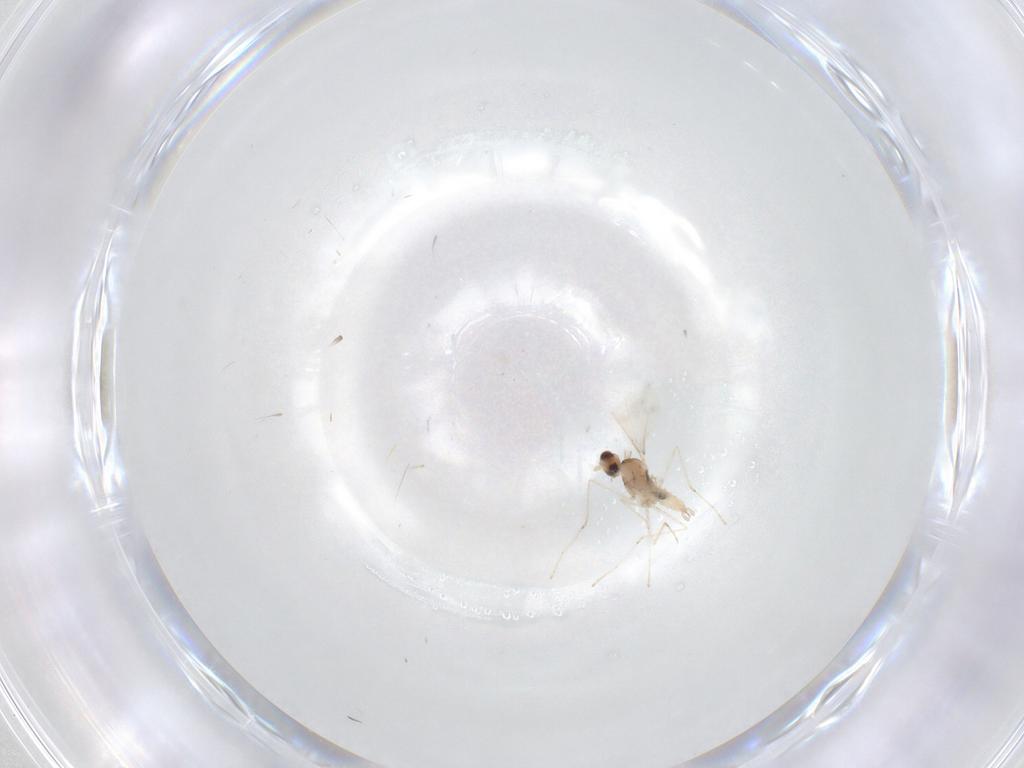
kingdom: Animalia
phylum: Arthropoda
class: Insecta
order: Diptera
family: Cecidomyiidae
